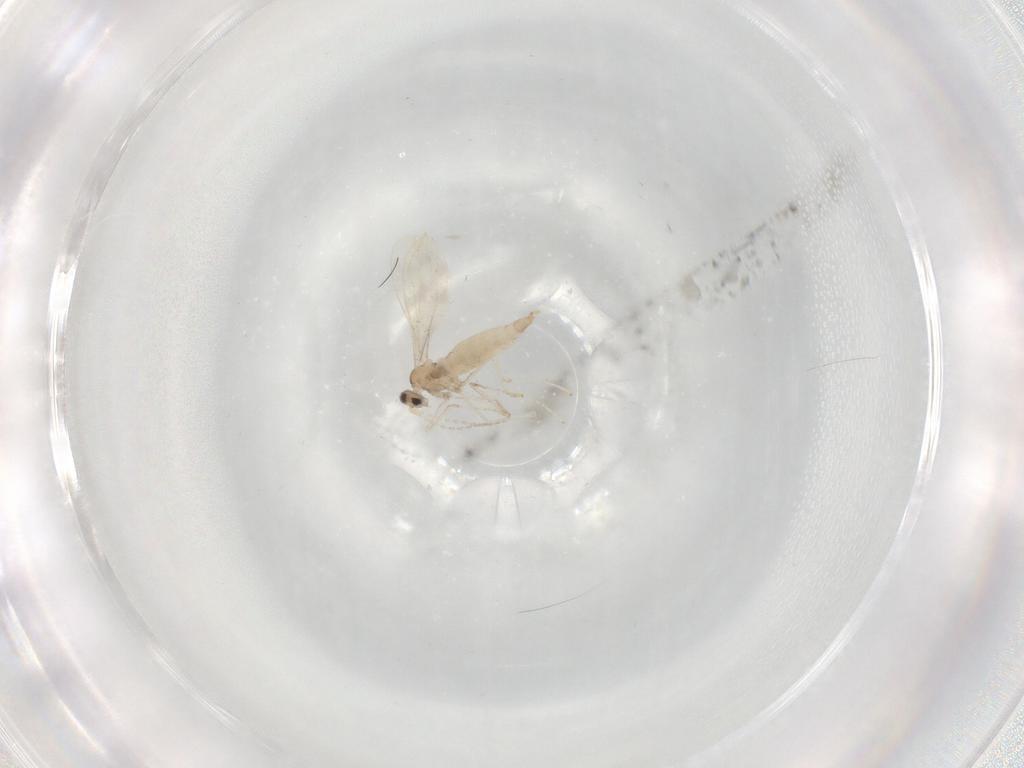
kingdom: Animalia
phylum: Arthropoda
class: Insecta
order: Diptera
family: Cecidomyiidae
